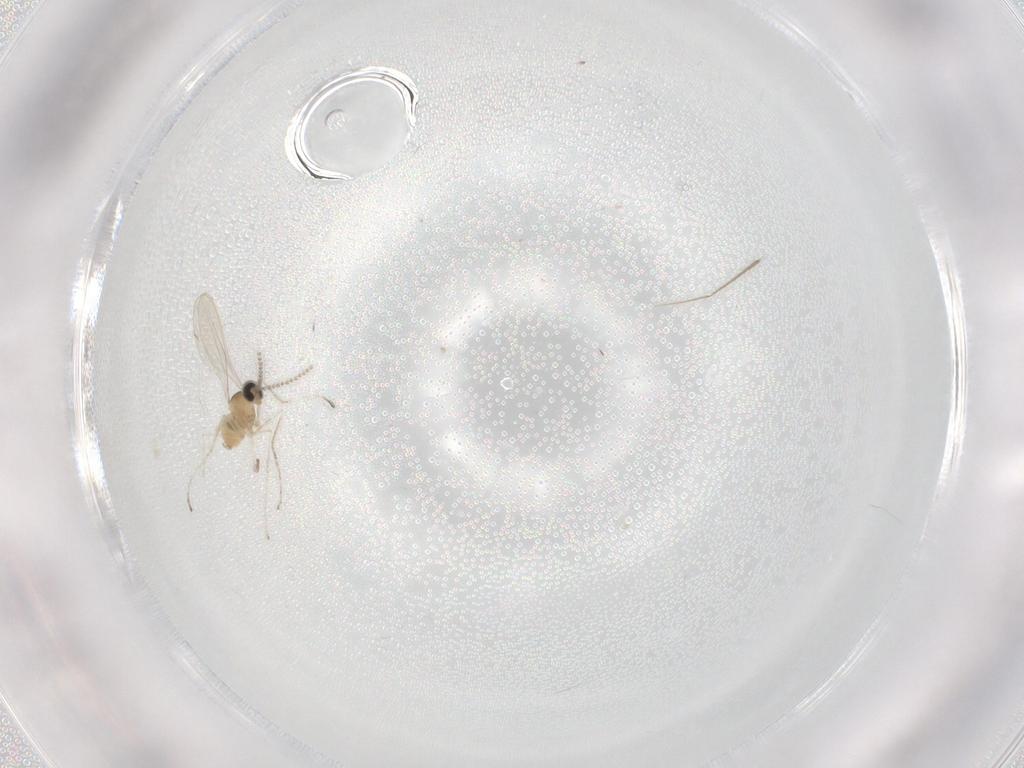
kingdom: Animalia
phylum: Arthropoda
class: Insecta
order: Diptera
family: Cecidomyiidae
